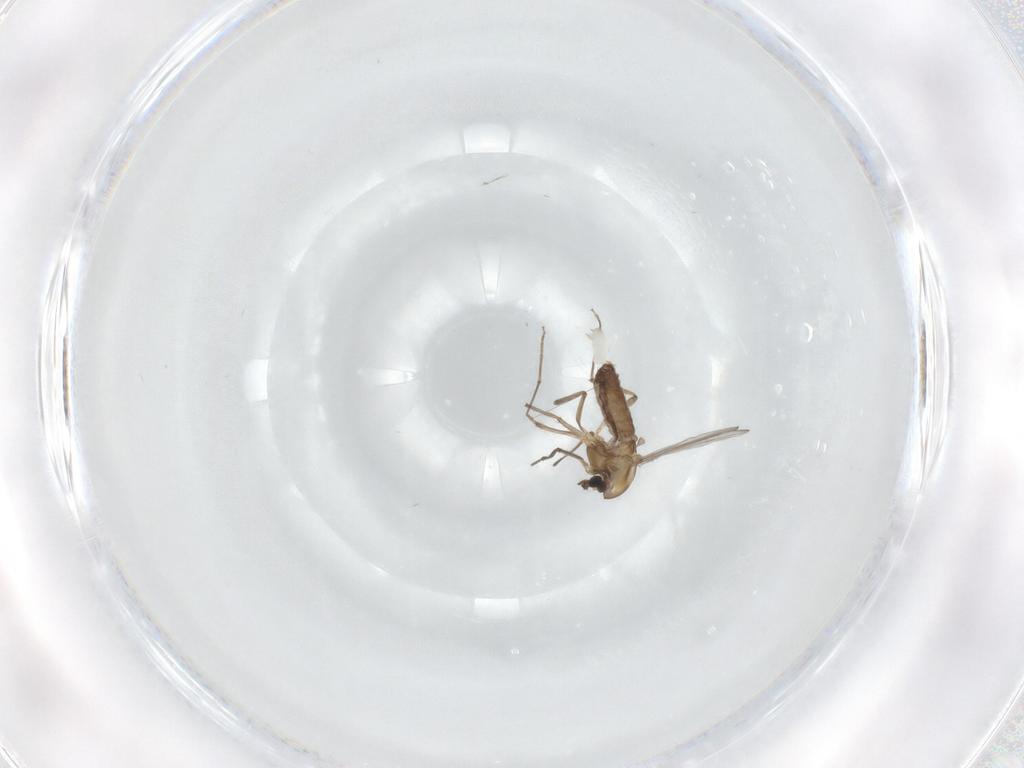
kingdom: Animalia
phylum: Arthropoda
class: Insecta
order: Diptera
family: Chironomidae
